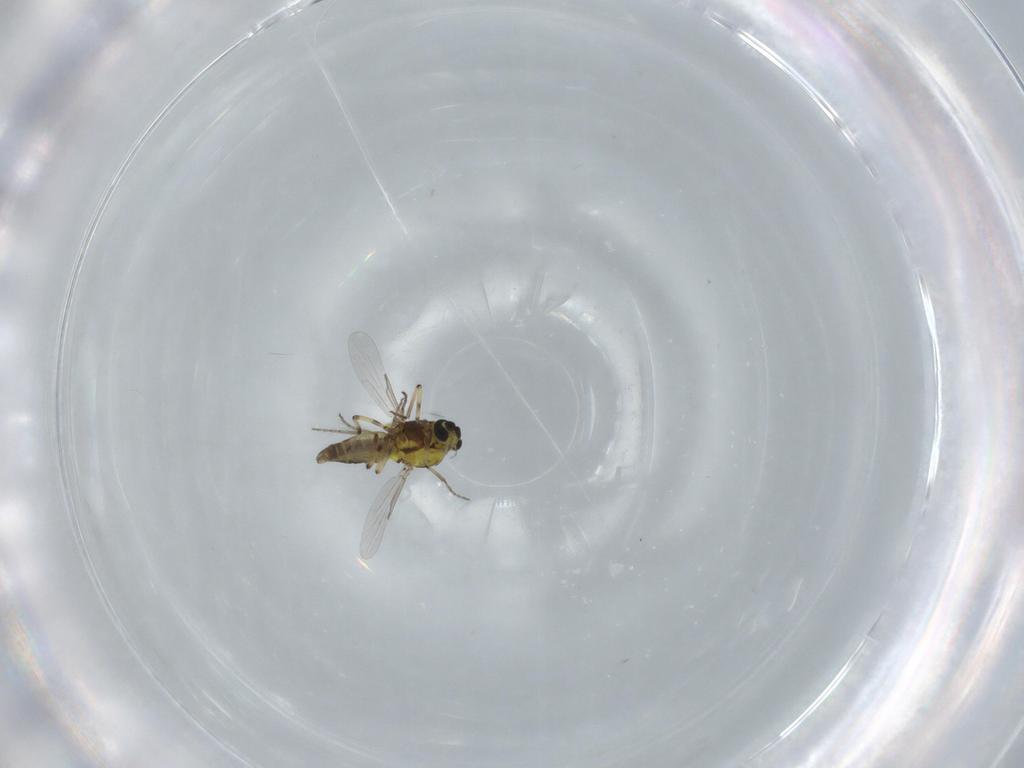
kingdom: Animalia
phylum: Arthropoda
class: Insecta
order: Diptera
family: Ceratopogonidae
